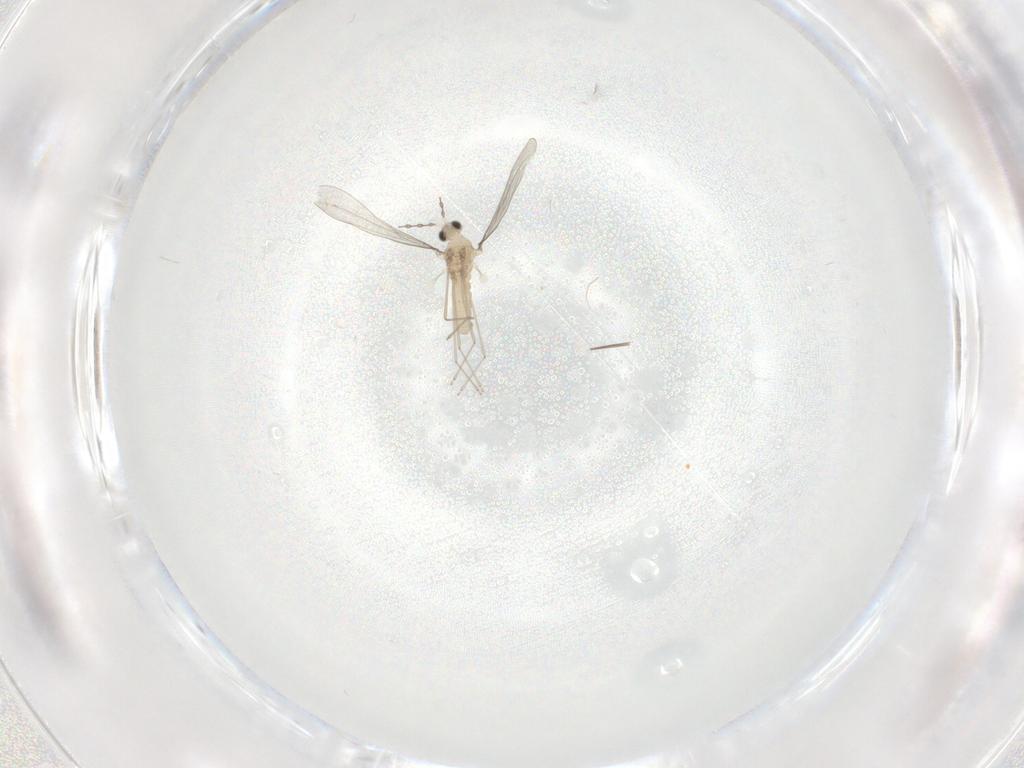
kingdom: Animalia
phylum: Arthropoda
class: Insecta
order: Diptera
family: Cecidomyiidae
